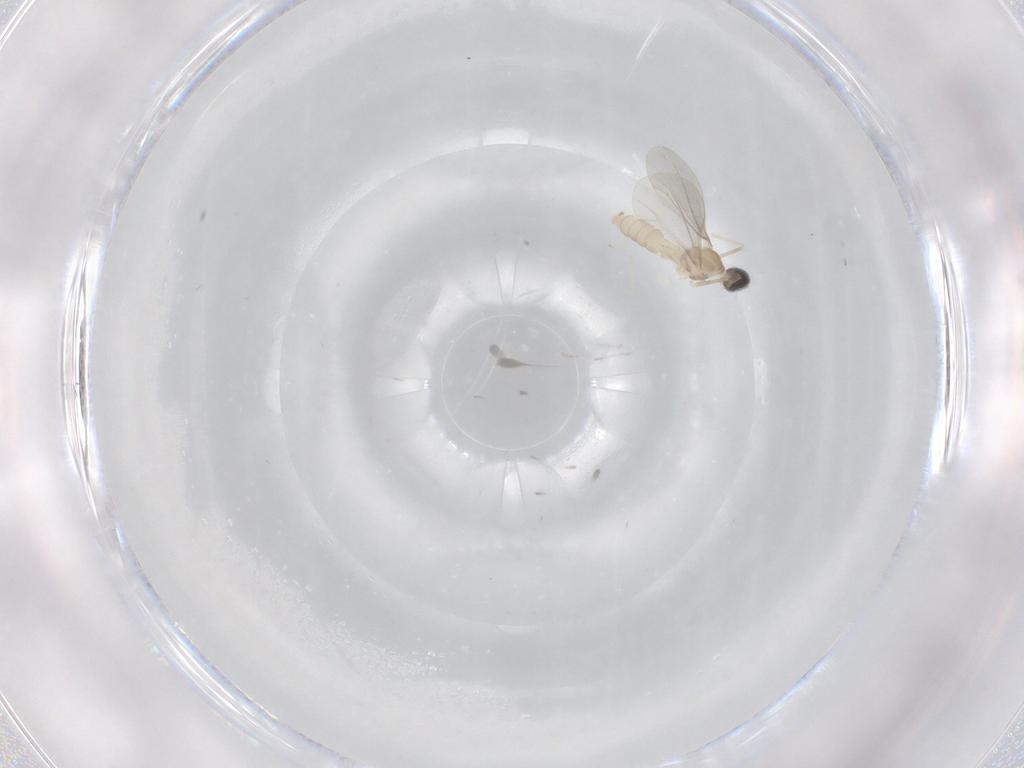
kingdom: Animalia
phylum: Arthropoda
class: Insecta
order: Diptera
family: Cecidomyiidae
